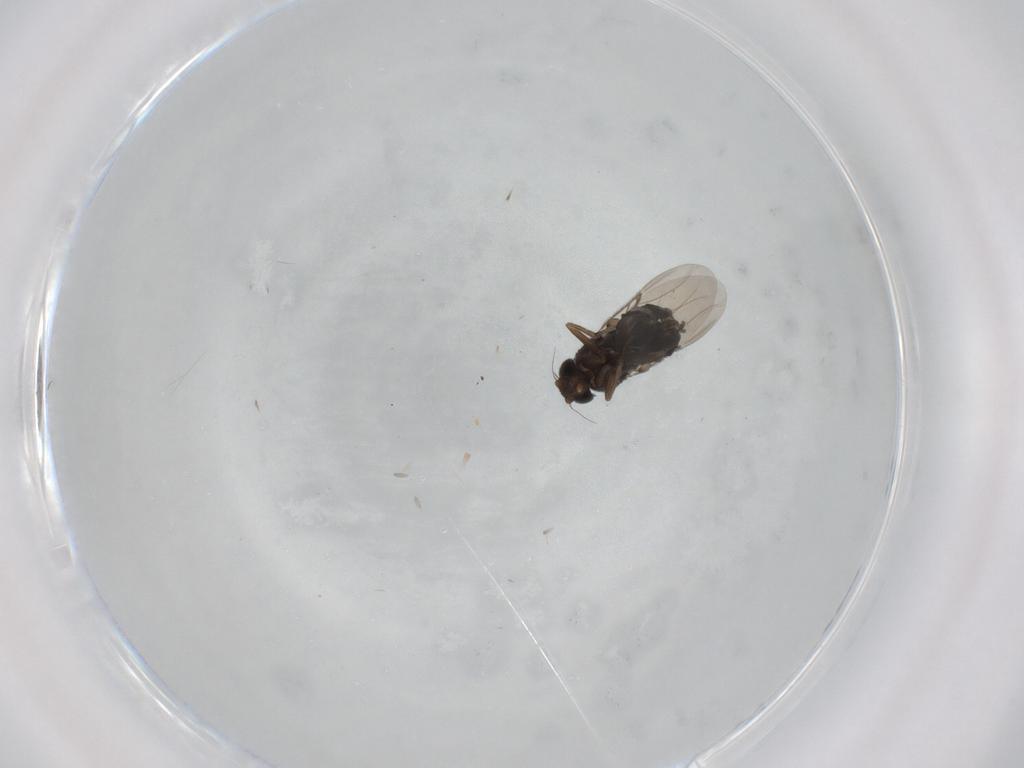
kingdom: Animalia
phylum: Arthropoda
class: Insecta
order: Diptera
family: Phoridae
